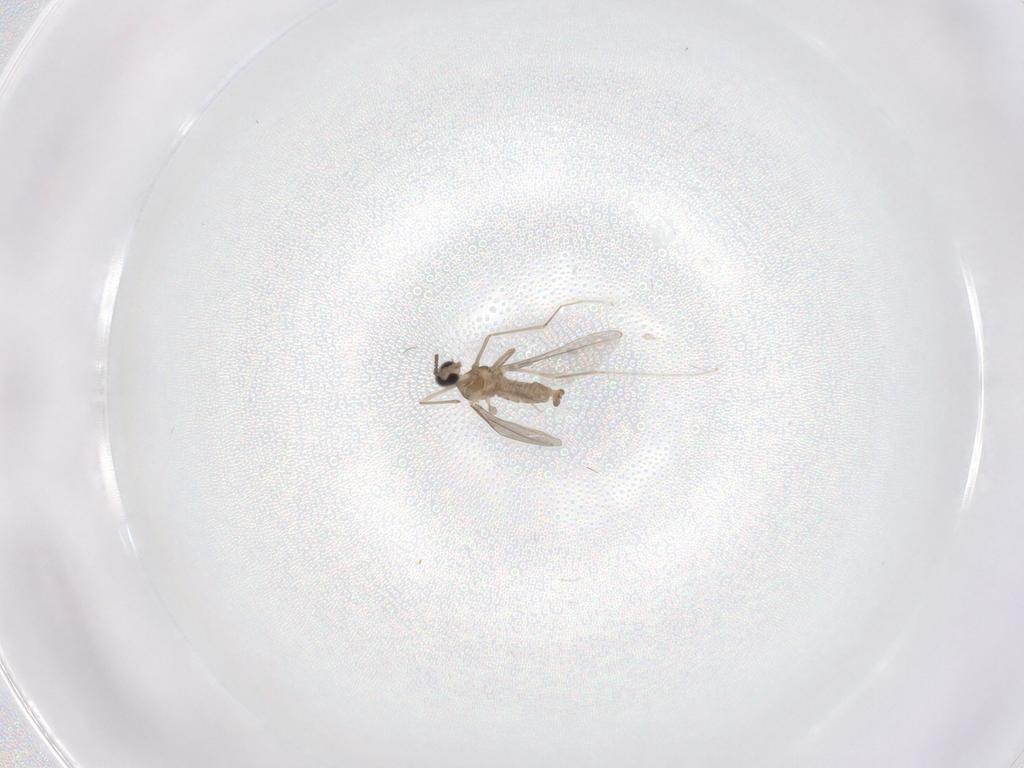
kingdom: Animalia
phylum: Arthropoda
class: Insecta
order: Diptera
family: Cecidomyiidae
